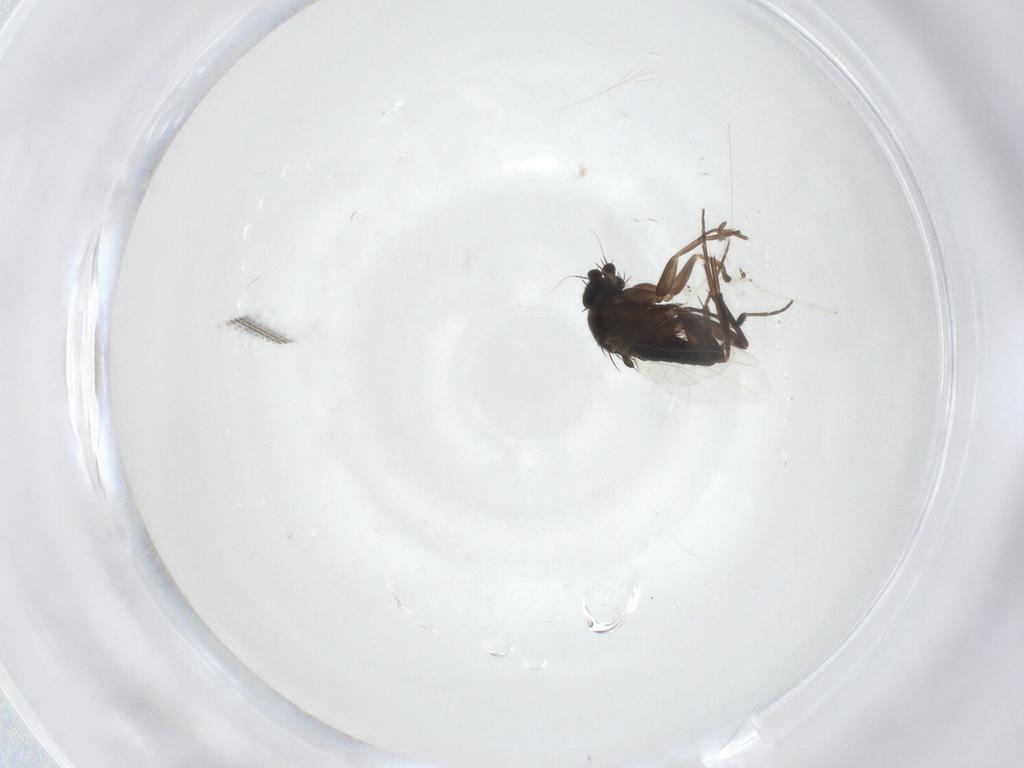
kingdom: Animalia
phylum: Arthropoda
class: Insecta
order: Diptera
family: Phoridae
